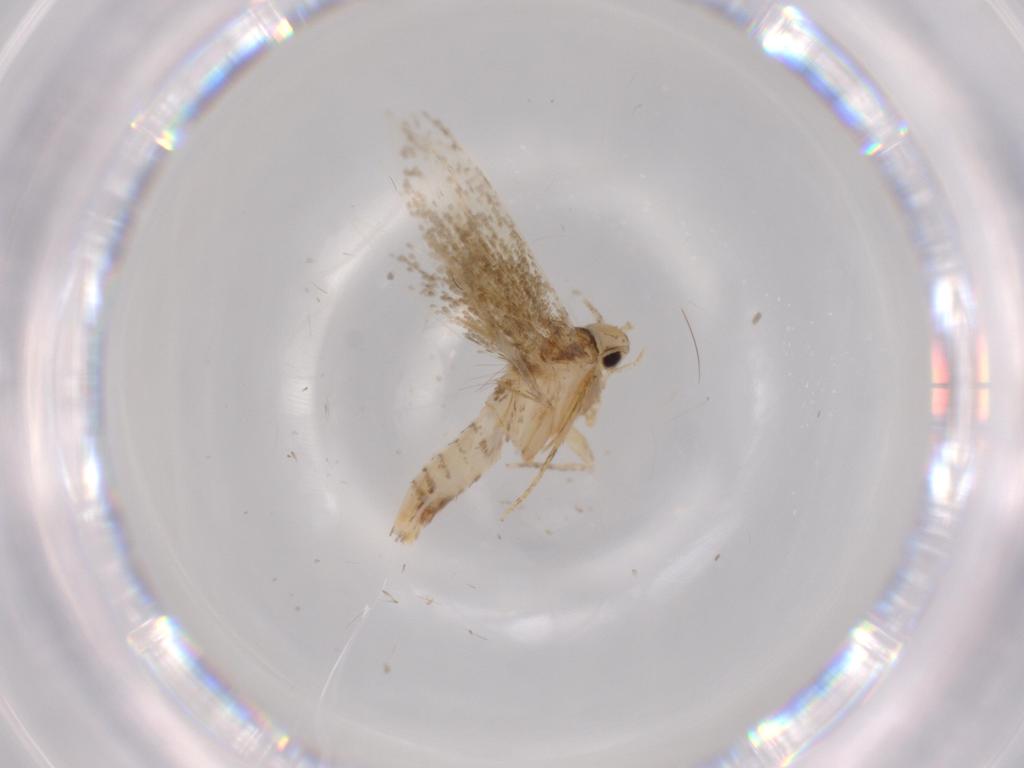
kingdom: Animalia
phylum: Arthropoda
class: Insecta
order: Lepidoptera
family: Tineidae
